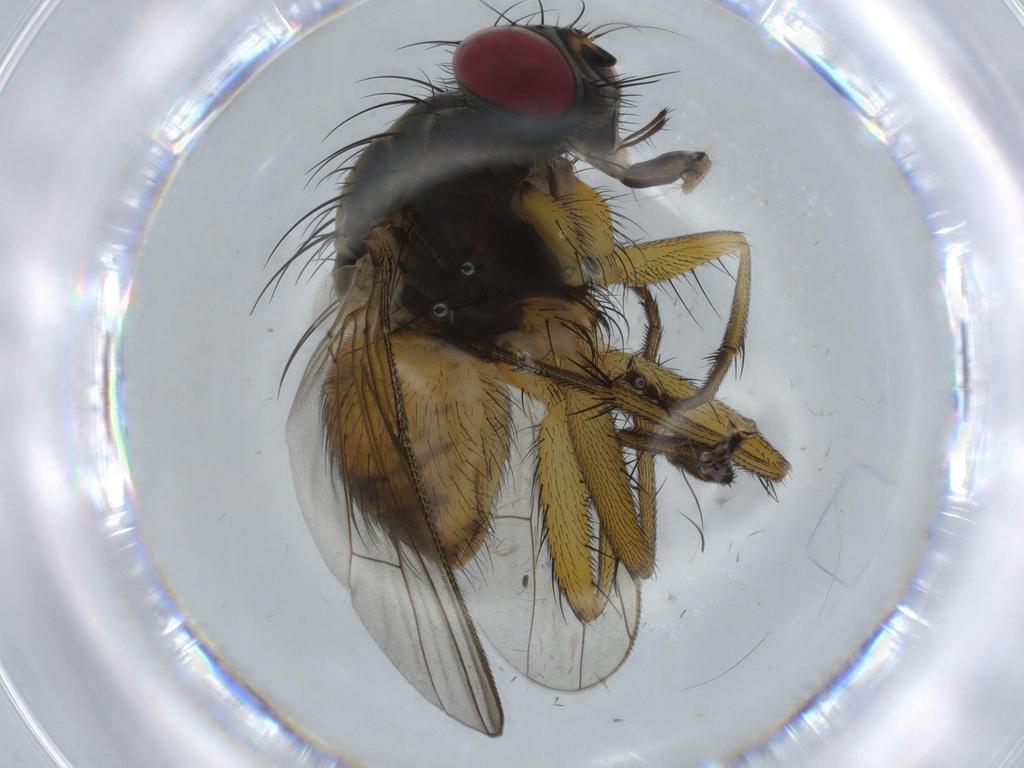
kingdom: Animalia
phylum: Arthropoda
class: Insecta
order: Diptera
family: Muscidae
